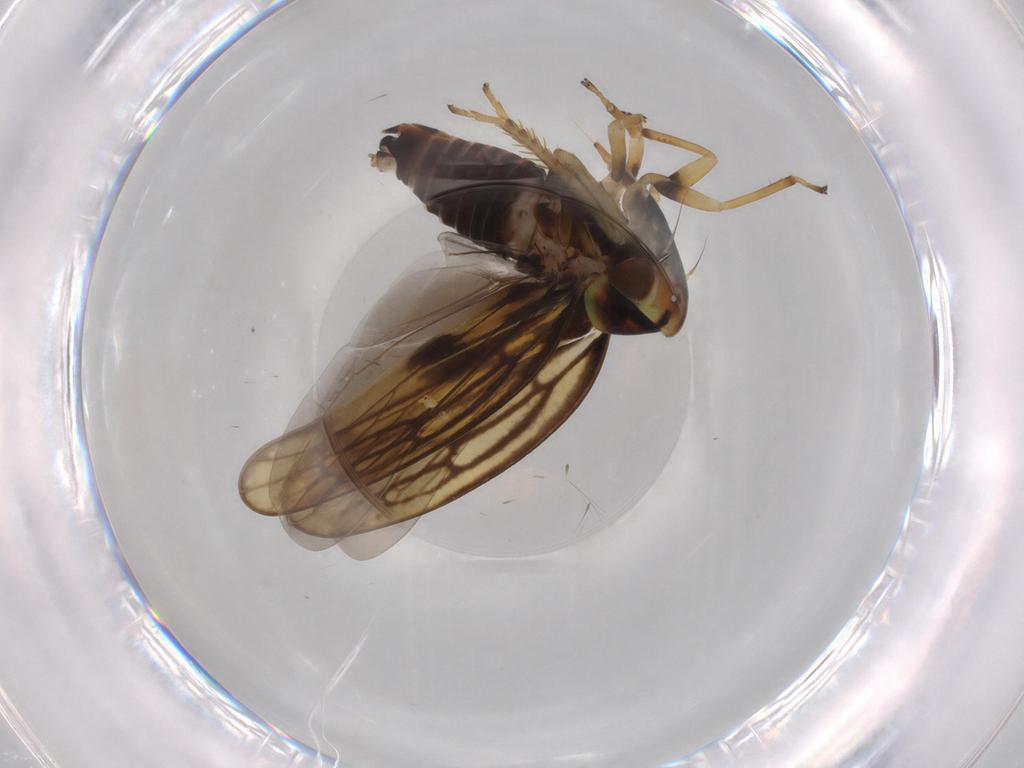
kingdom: Animalia
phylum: Arthropoda
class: Insecta
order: Hemiptera
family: Cicadellidae
